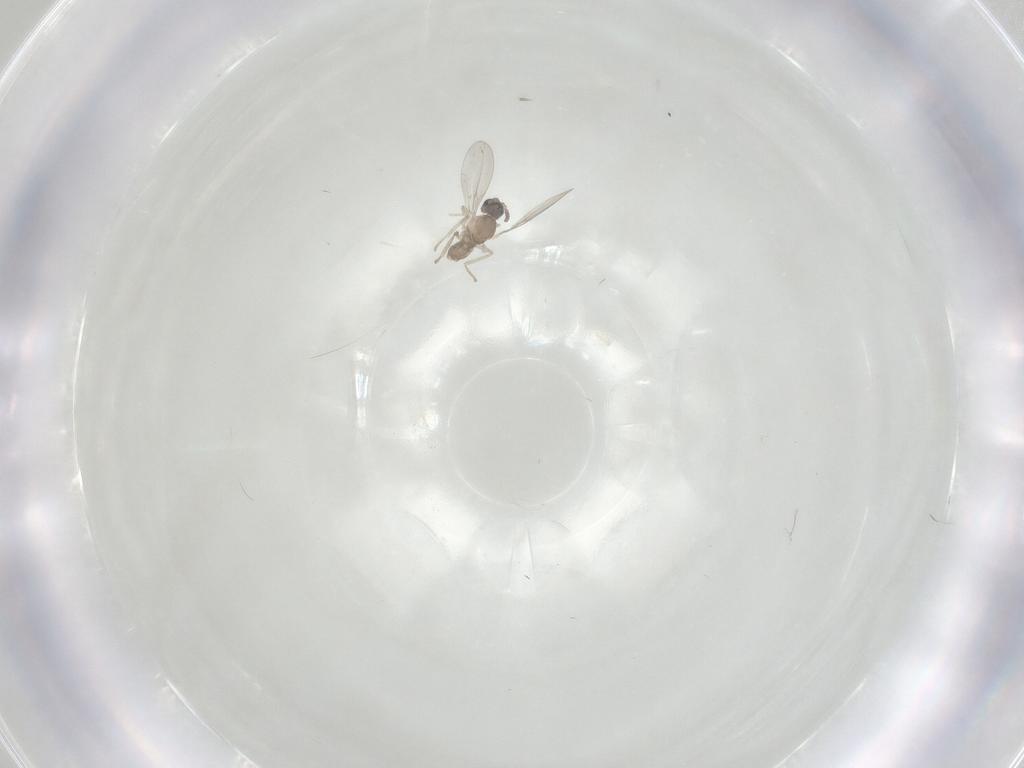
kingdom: Animalia
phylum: Arthropoda
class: Insecta
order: Diptera
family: Cecidomyiidae
